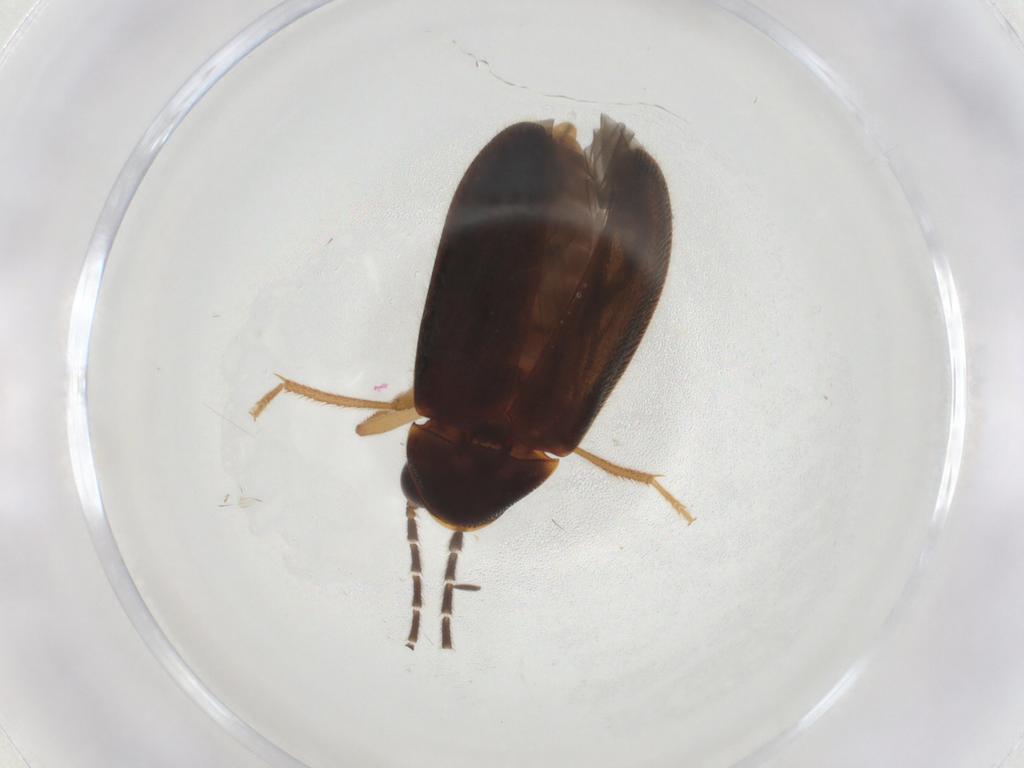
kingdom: Animalia
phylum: Arthropoda
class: Insecta
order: Coleoptera
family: Ptilodactylidae
